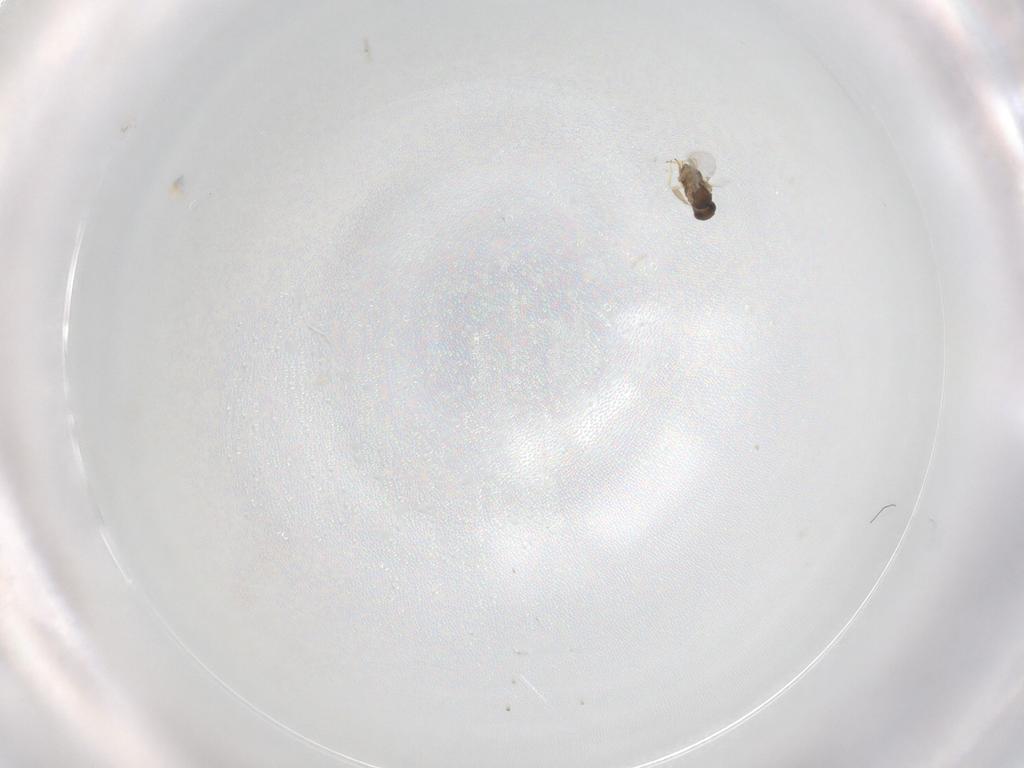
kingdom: Animalia
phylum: Arthropoda
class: Insecta
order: Hymenoptera
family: Encyrtidae
